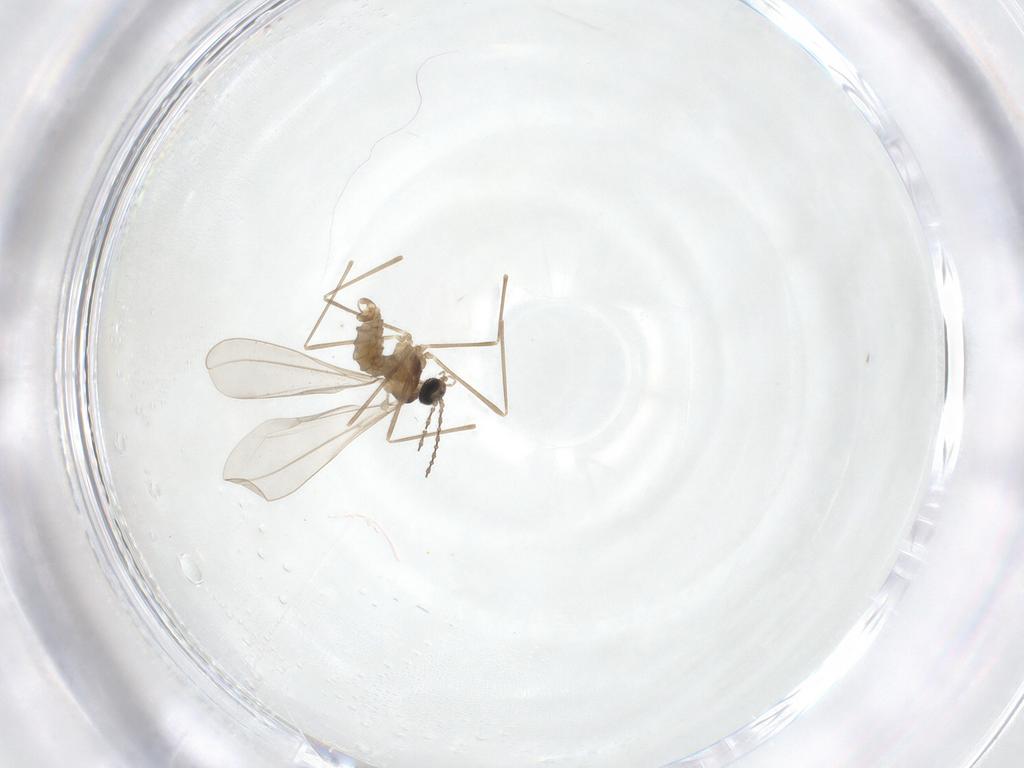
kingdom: Animalia
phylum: Arthropoda
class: Insecta
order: Diptera
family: Cecidomyiidae
